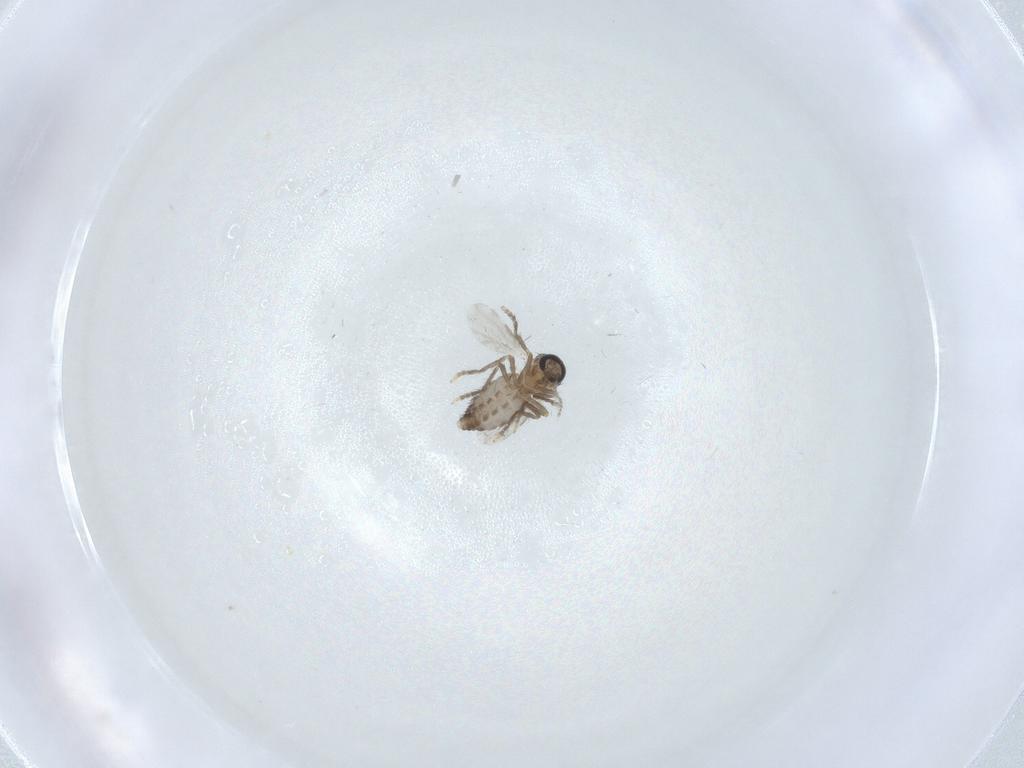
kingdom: Animalia
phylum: Arthropoda
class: Insecta
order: Diptera
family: Ceratopogonidae
